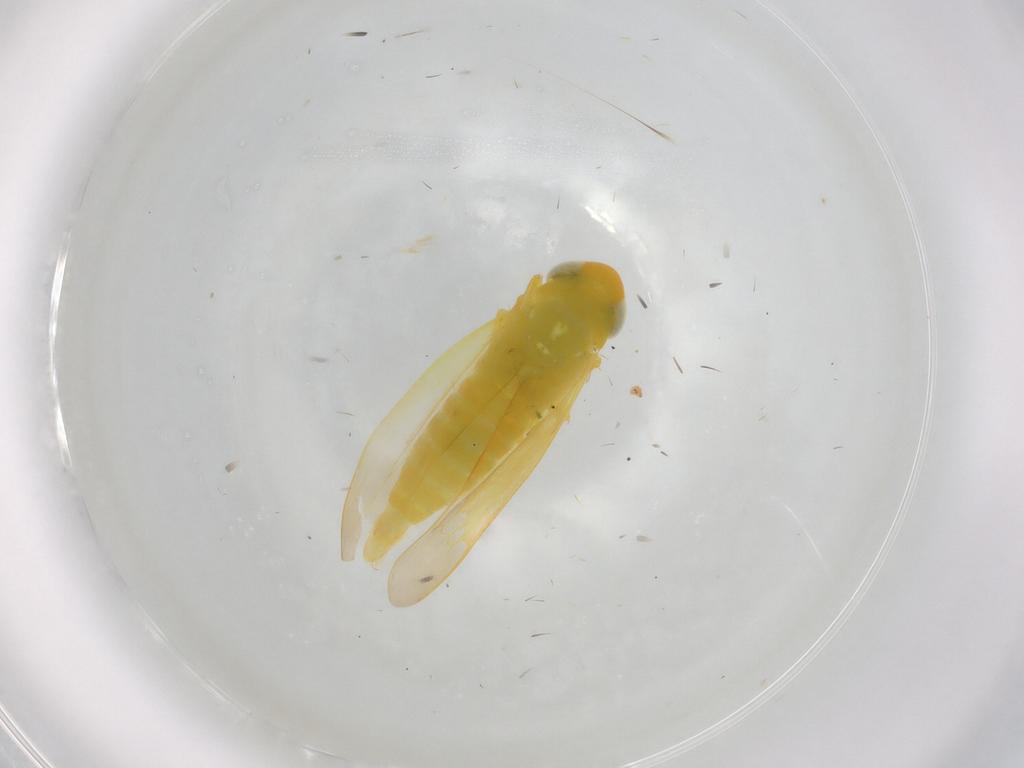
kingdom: Animalia
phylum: Arthropoda
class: Insecta
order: Hemiptera
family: Cicadellidae
